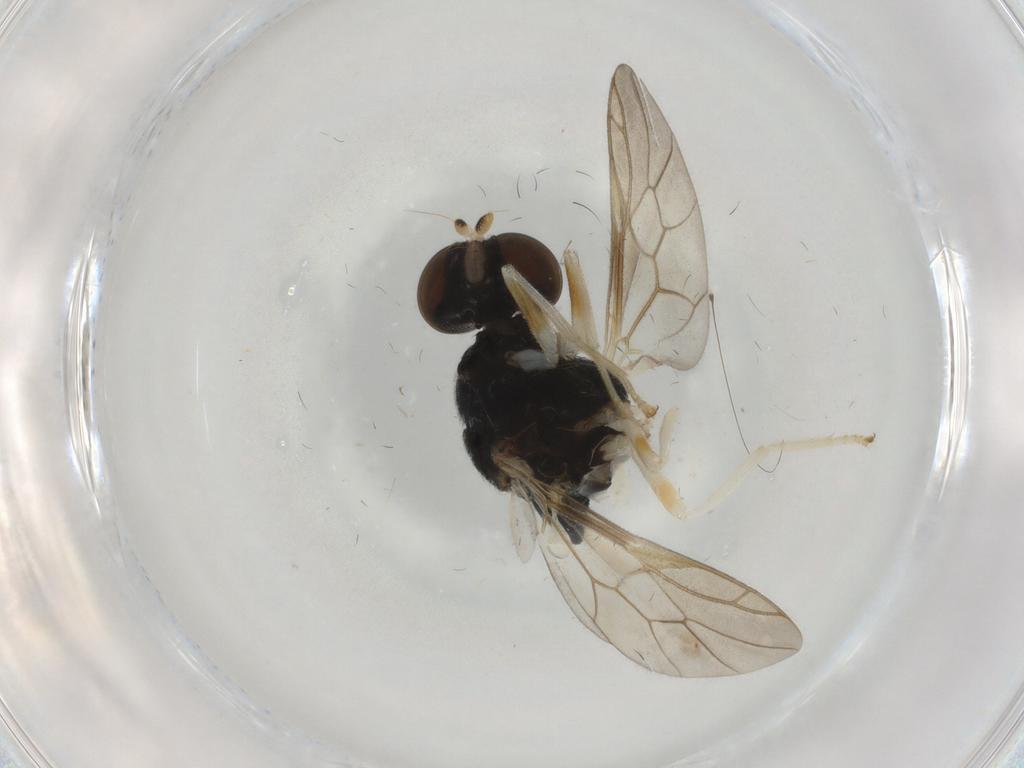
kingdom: Animalia
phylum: Arthropoda
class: Insecta
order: Diptera
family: Stratiomyidae
